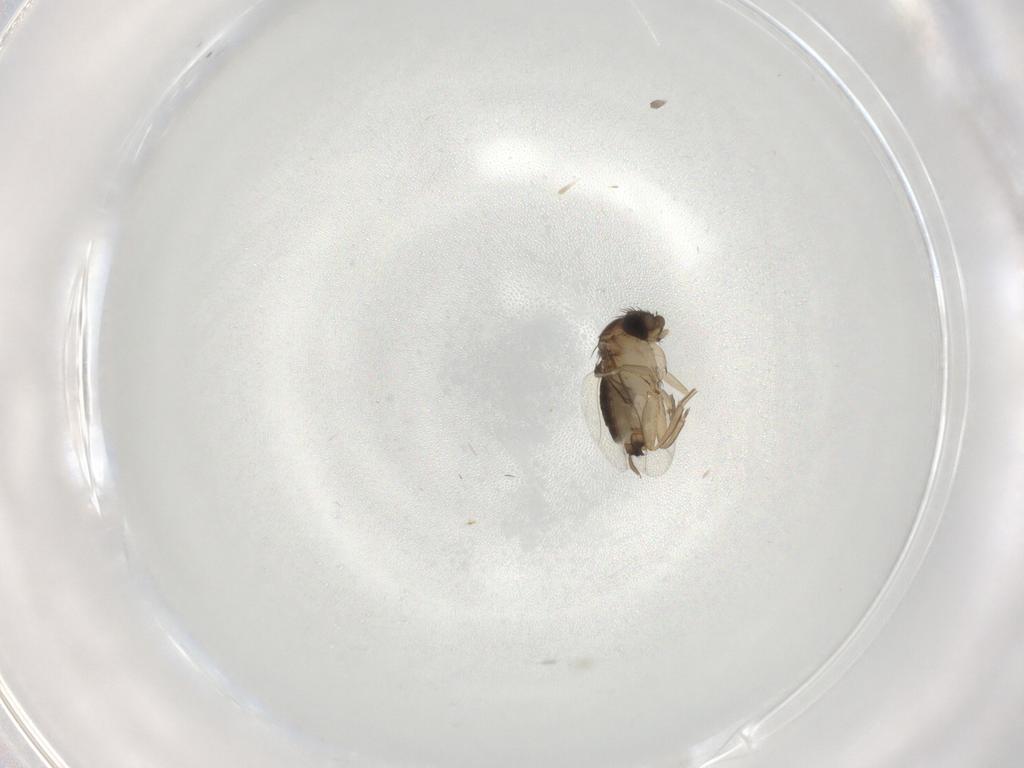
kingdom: Animalia
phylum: Arthropoda
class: Insecta
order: Diptera
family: Phoridae
